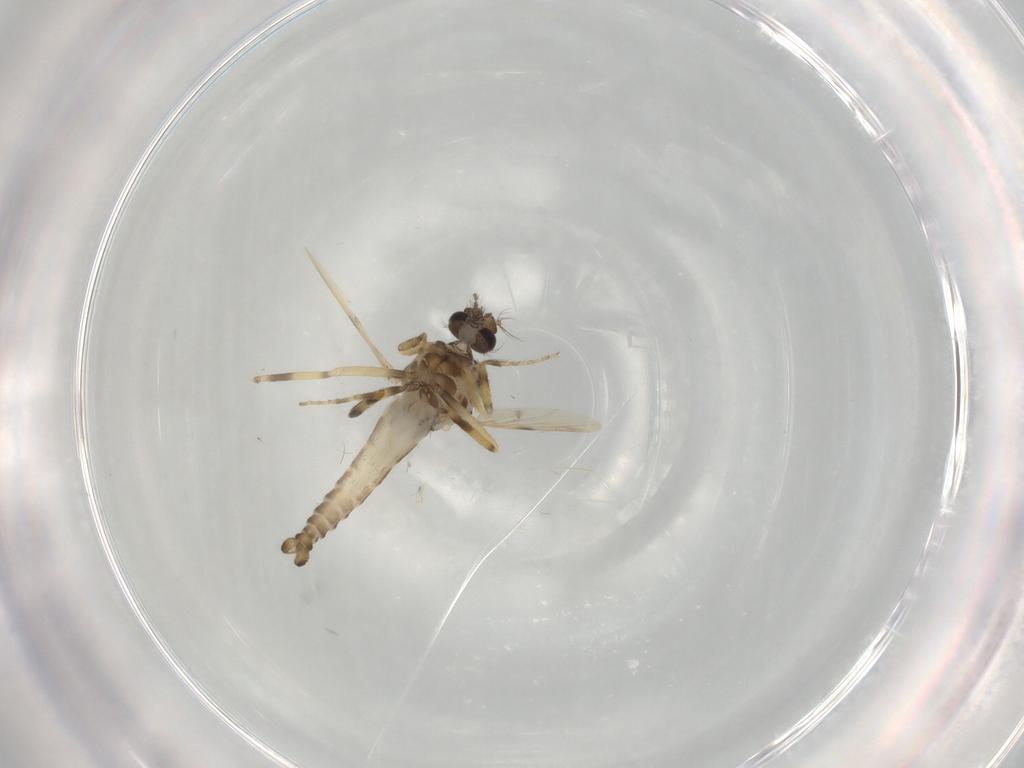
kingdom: Animalia
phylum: Arthropoda
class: Insecta
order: Diptera
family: Ceratopogonidae
